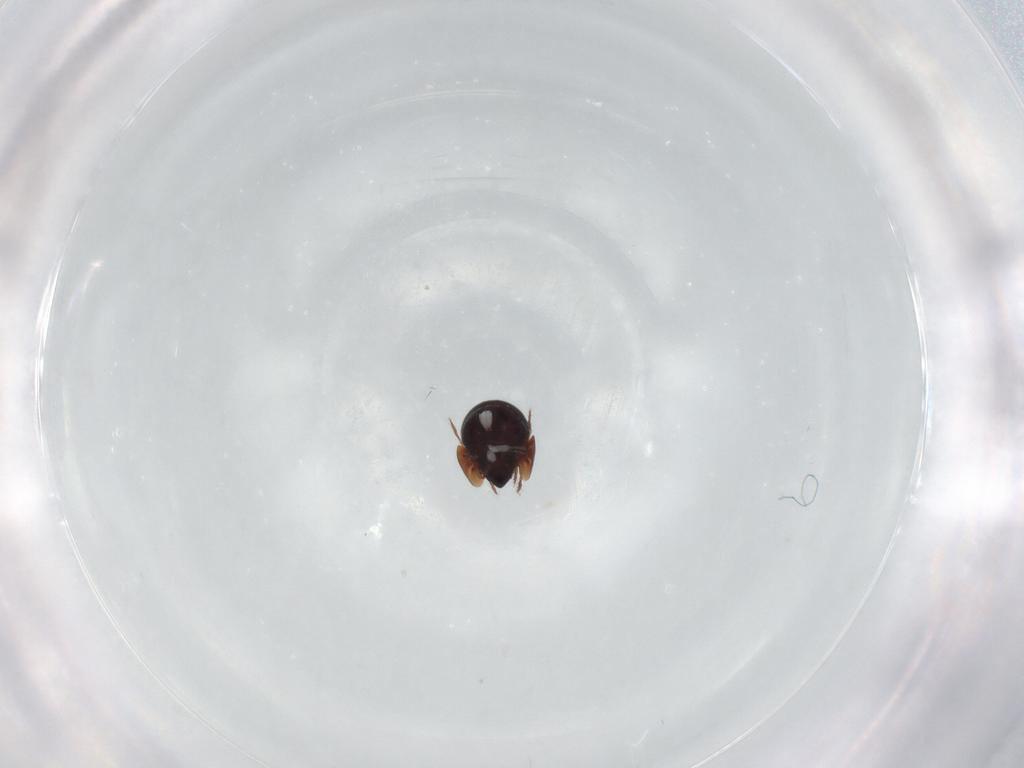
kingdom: Animalia
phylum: Arthropoda
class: Arachnida
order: Sarcoptiformes
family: Ceratozetidae
